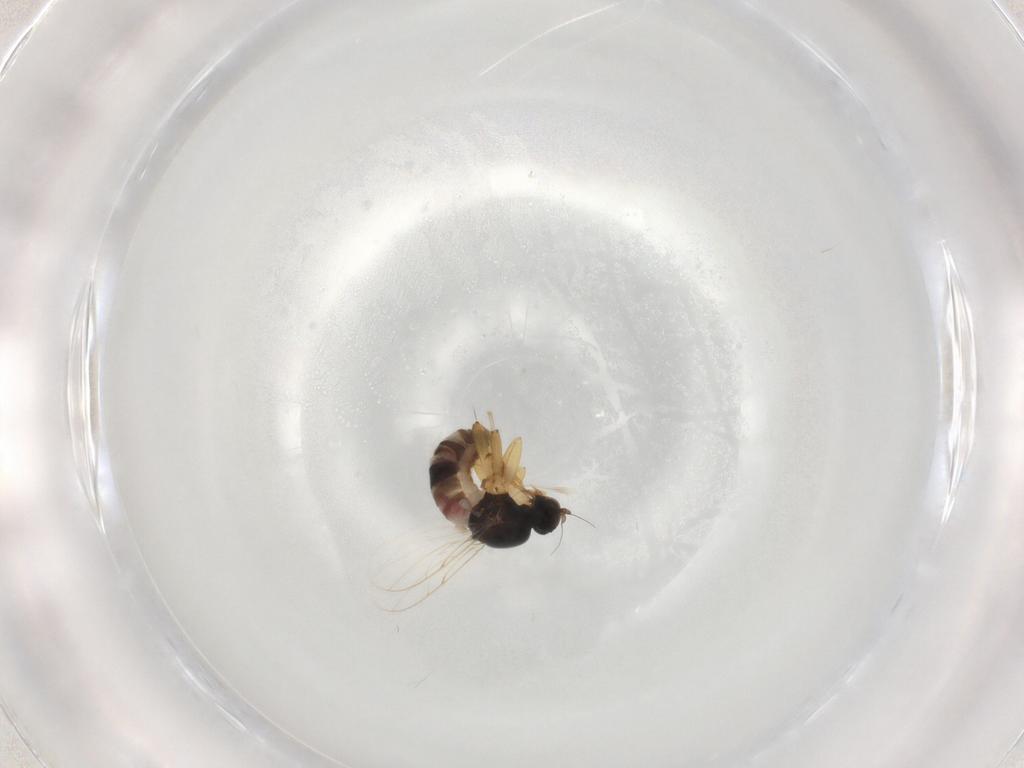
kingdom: Animalia
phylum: Arthropoda
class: Insecta
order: Diptera
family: Hybotidae
